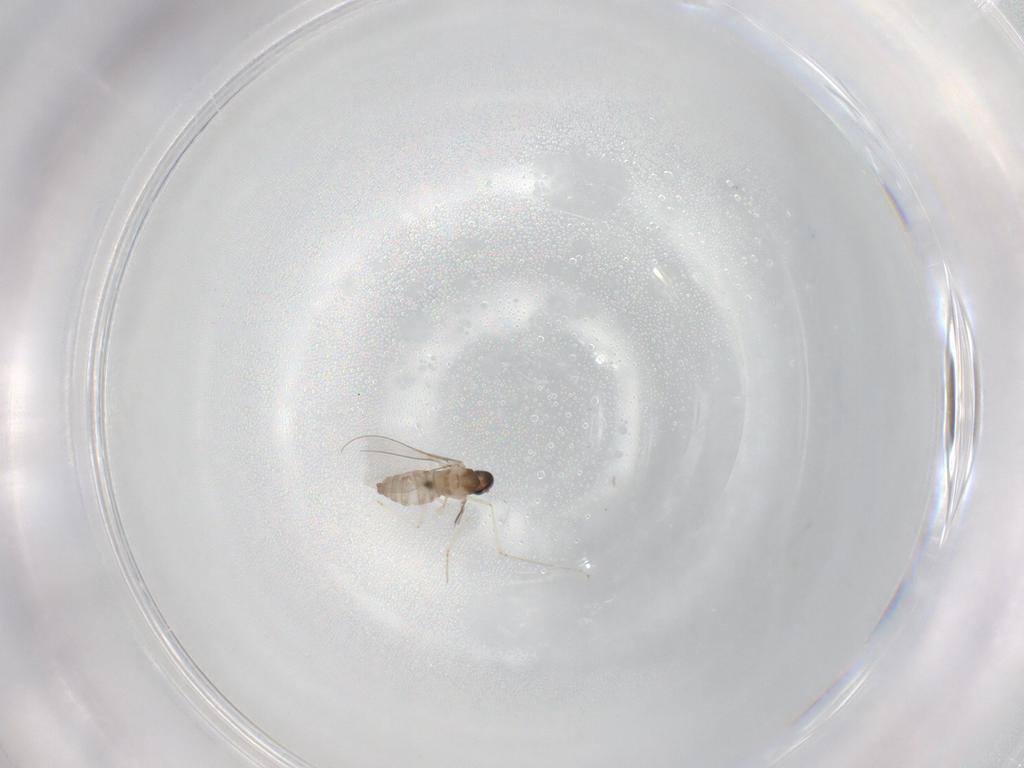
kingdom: Animalia
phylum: Arthropoda
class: Insecta
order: Diptera
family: Cecidomyiidae
